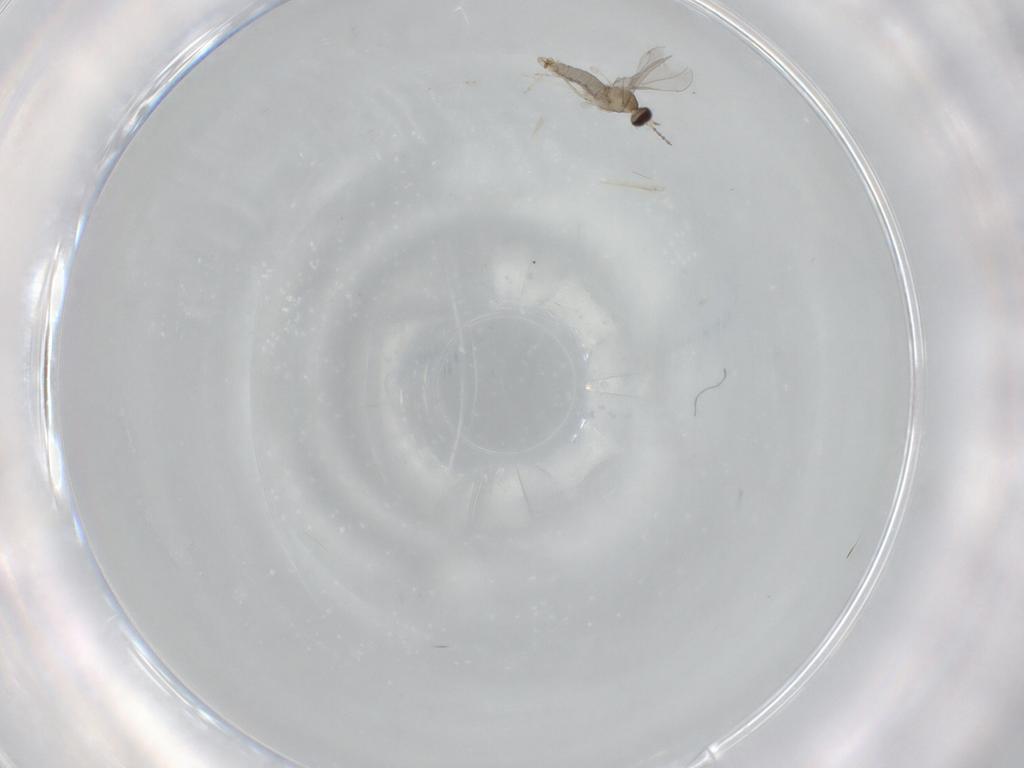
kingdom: Animalia
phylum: Arthropoda
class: Insecta
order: Diptera
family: Cecidomyiidae
